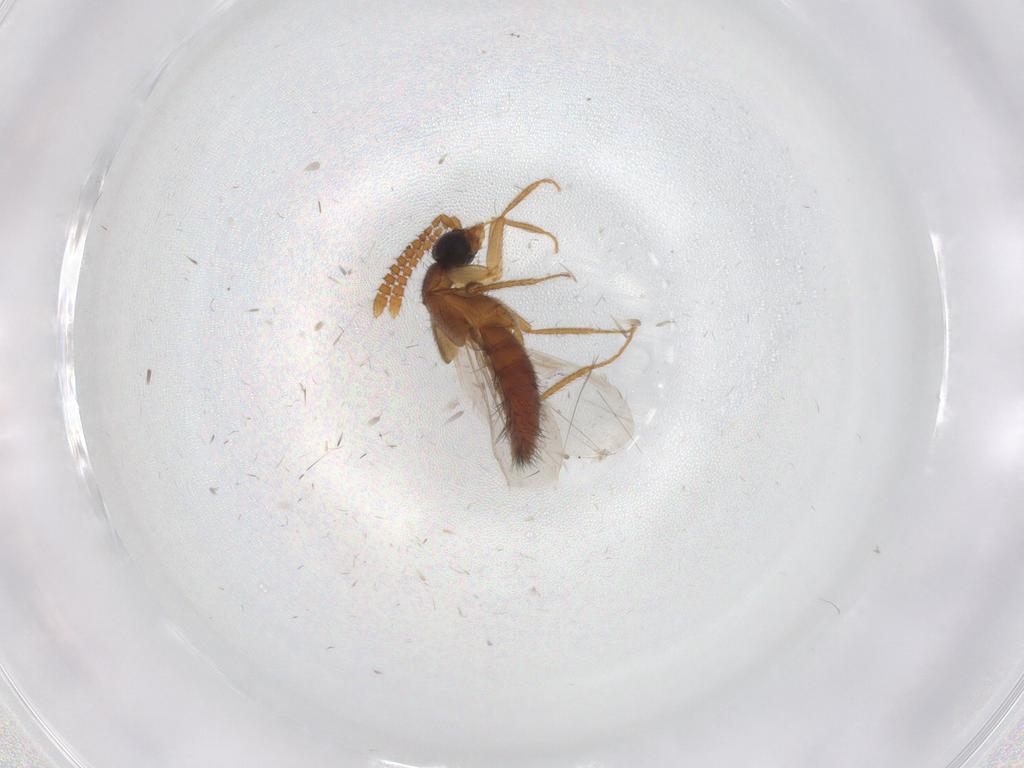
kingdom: Animalia
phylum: Arthropoda
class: Insecta
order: Coleoptera
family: Staphylinidae
